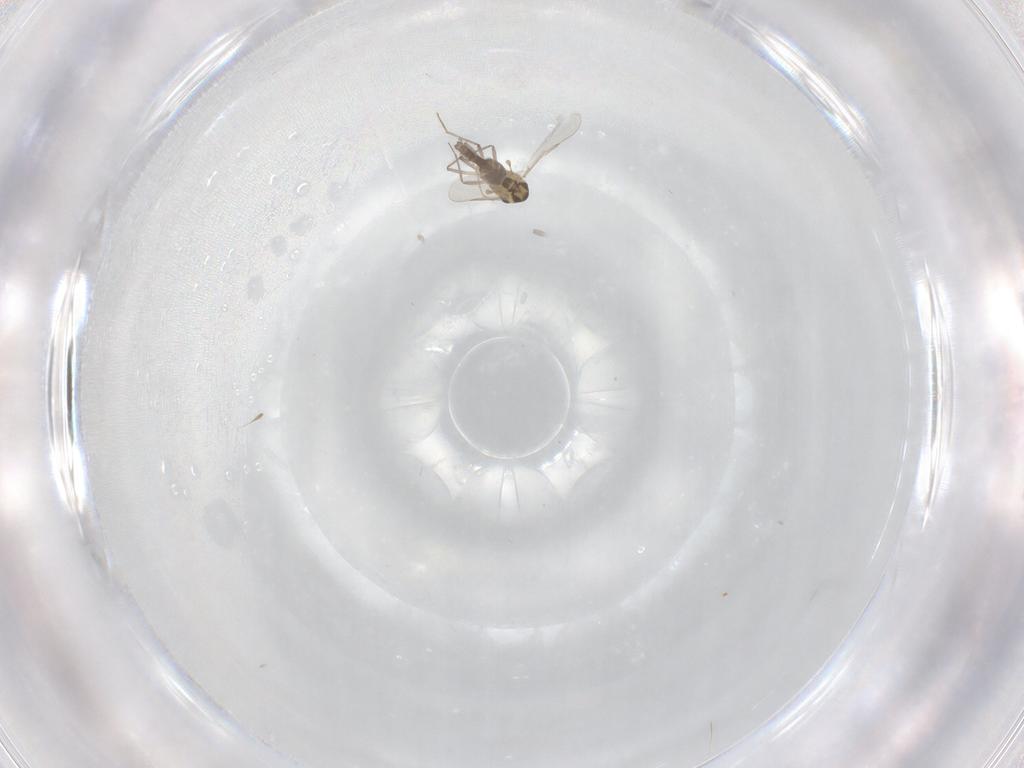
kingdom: Animalia
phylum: Arthropoda
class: Insecta
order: Diptera
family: Chironomidae
